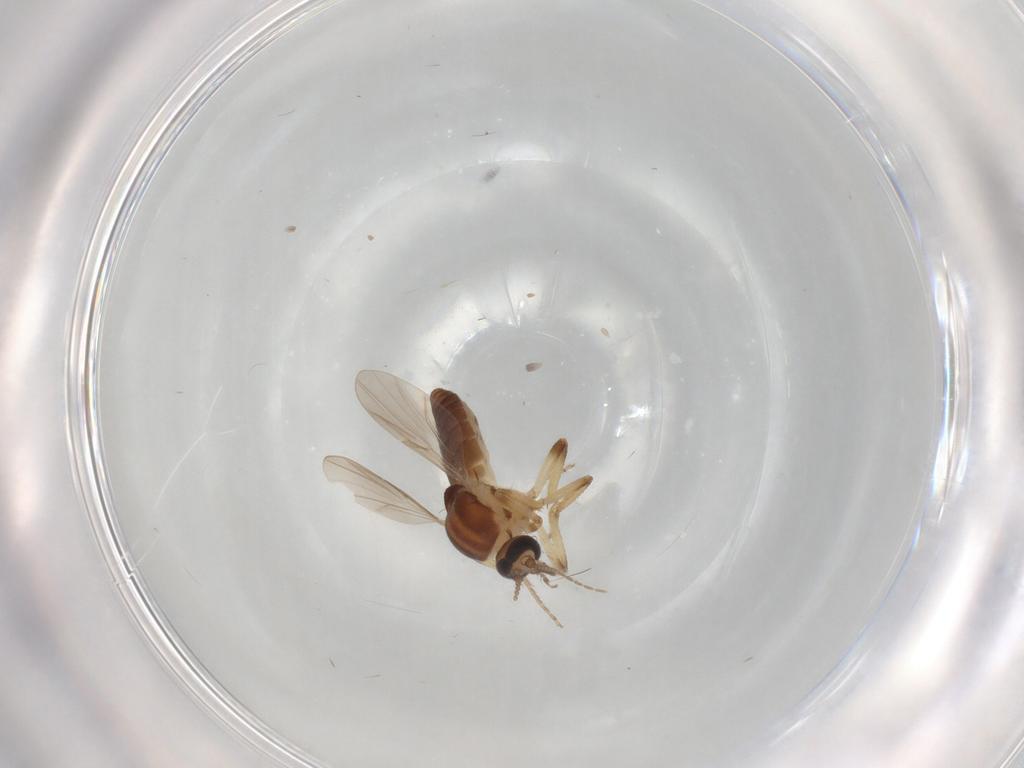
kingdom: Animalia
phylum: Arthropoda
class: Insecta
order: Diptera
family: Ceratopogonidae
